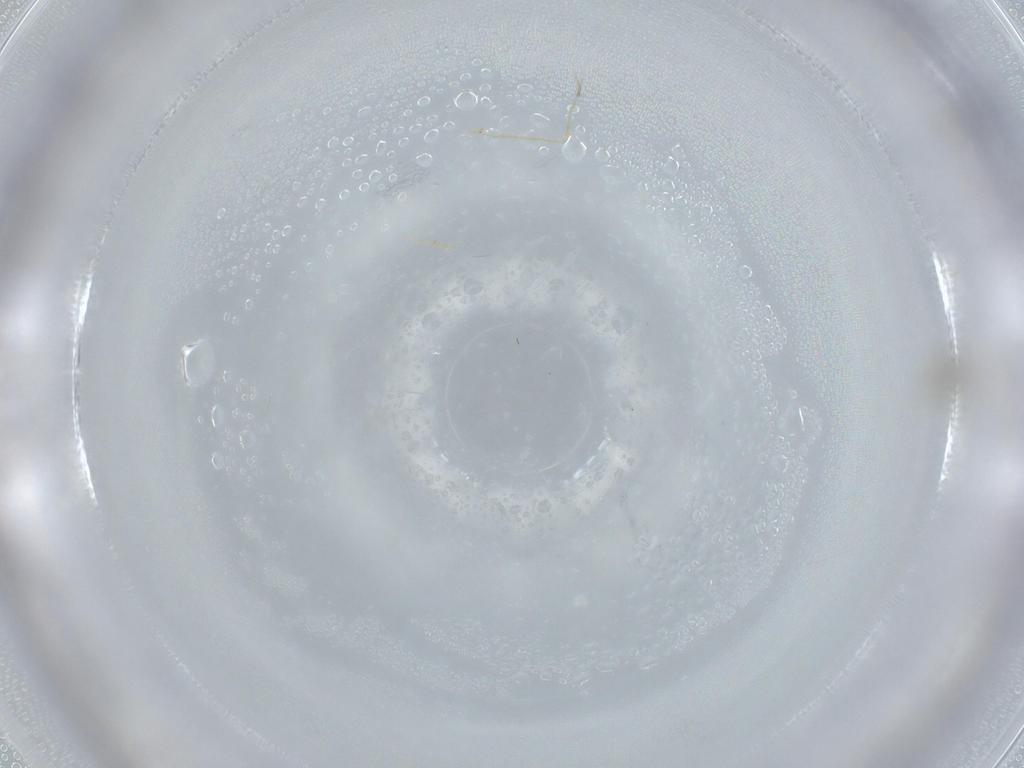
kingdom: Animalia
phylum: Arthropoda
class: Insecta
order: Diptera
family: Cecidomyiidae
